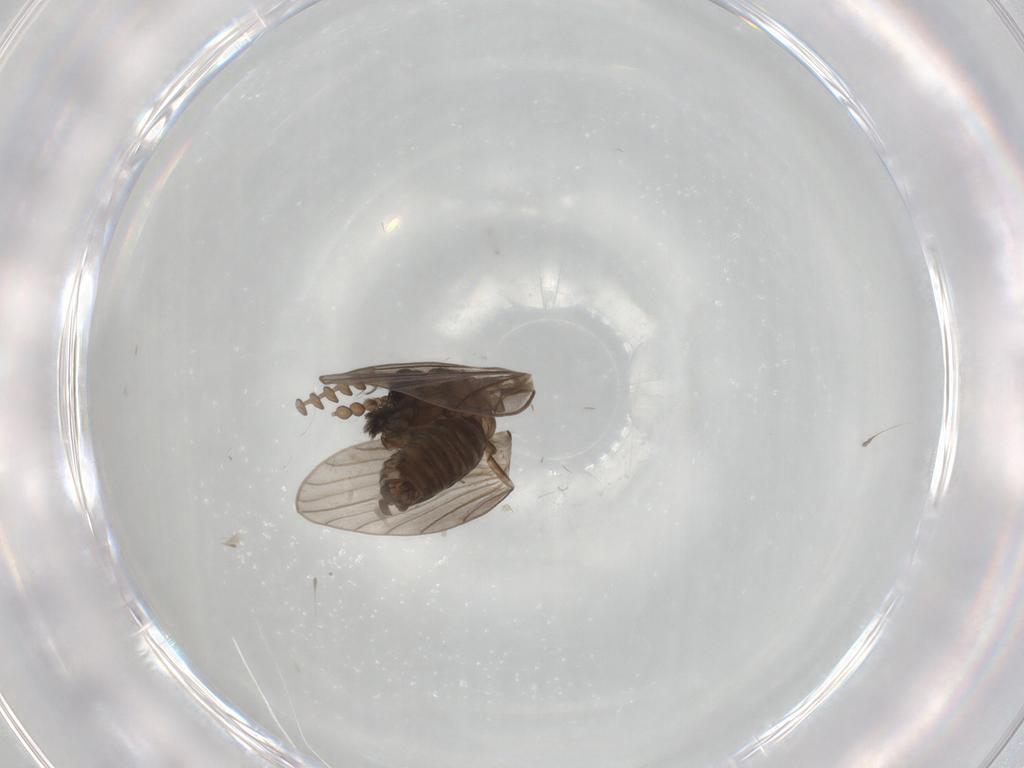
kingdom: Animalia
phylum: Arthropoda
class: Insecta
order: Diptera
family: Psychodidae
